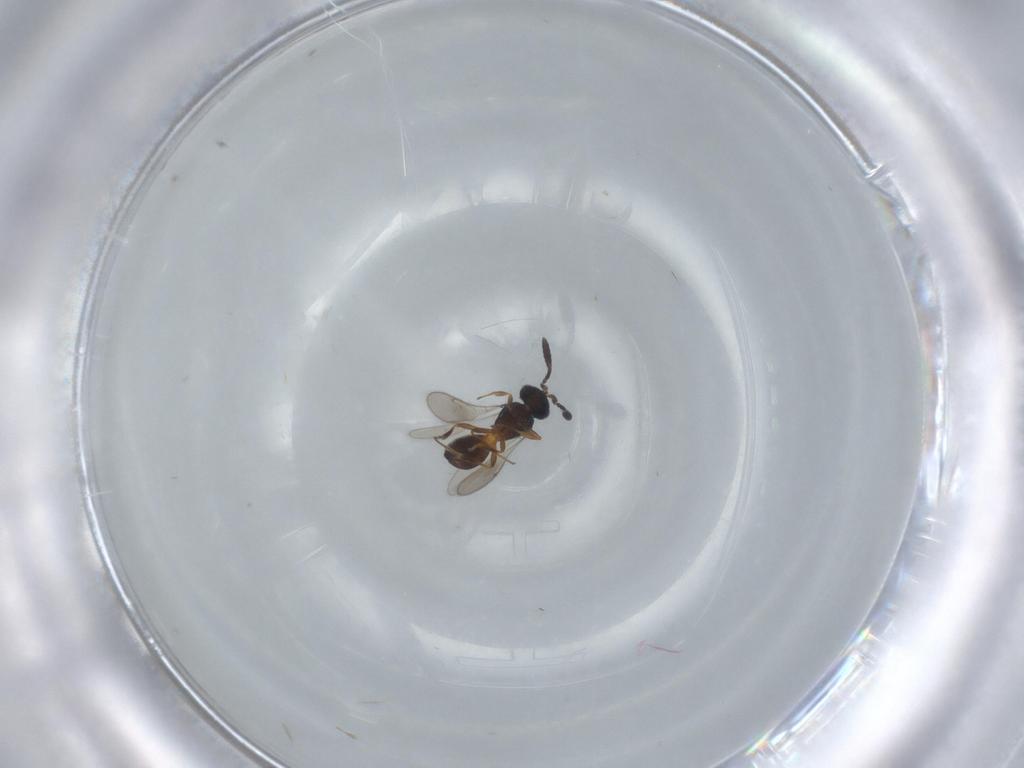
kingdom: Animalia
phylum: Arthropoda
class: Insecta
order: Hymenoptera
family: Scelionidae
